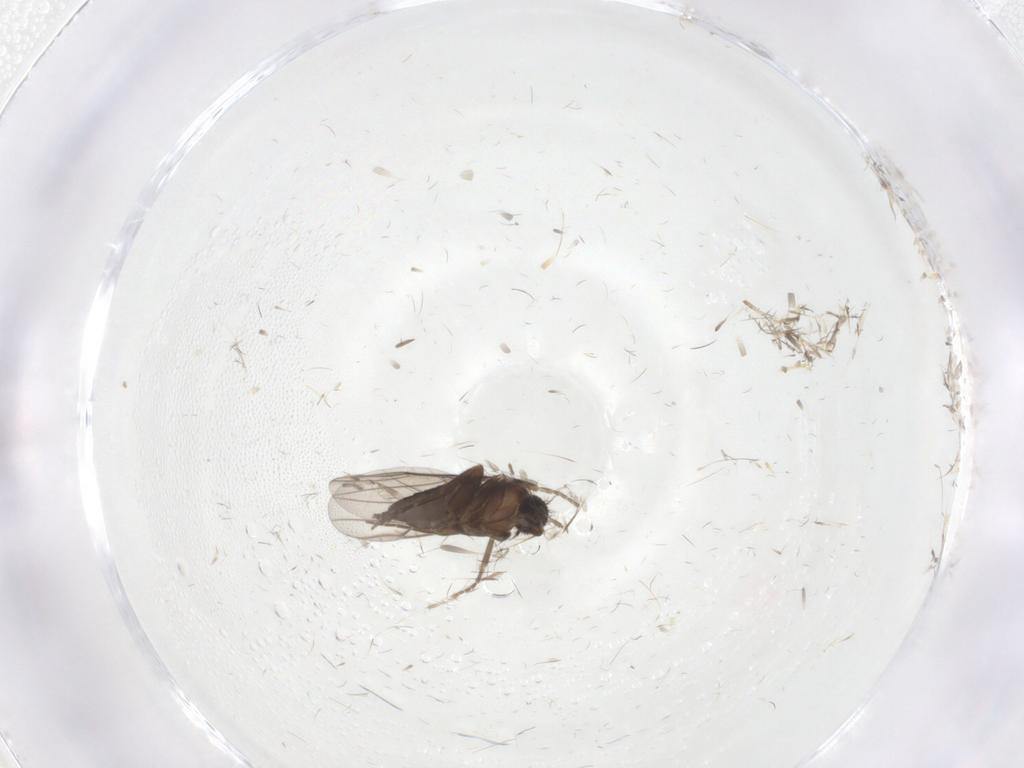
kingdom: Animalia
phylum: Arthropoda
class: Insecta
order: Diptera
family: Phoridae
